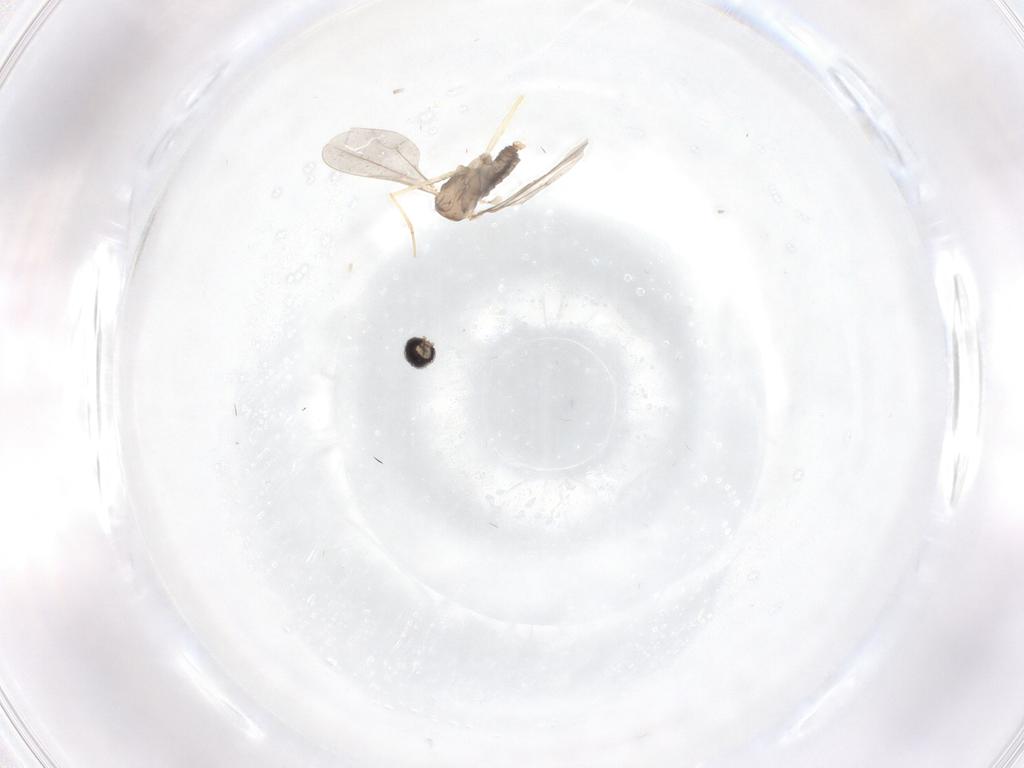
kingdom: Animalia
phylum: Arthropoda
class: Insecta
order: Diptera
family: Cecidomyiidae
